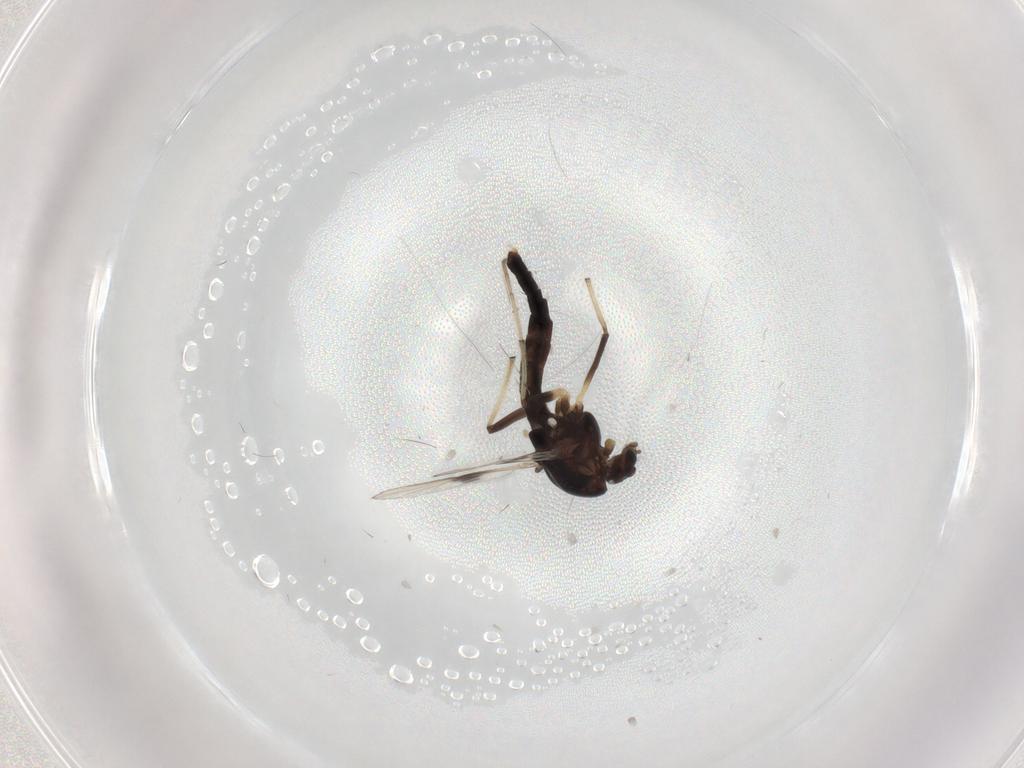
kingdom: Animalia
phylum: Arthropoda
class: Insecta
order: Diptera
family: Chironomidae
